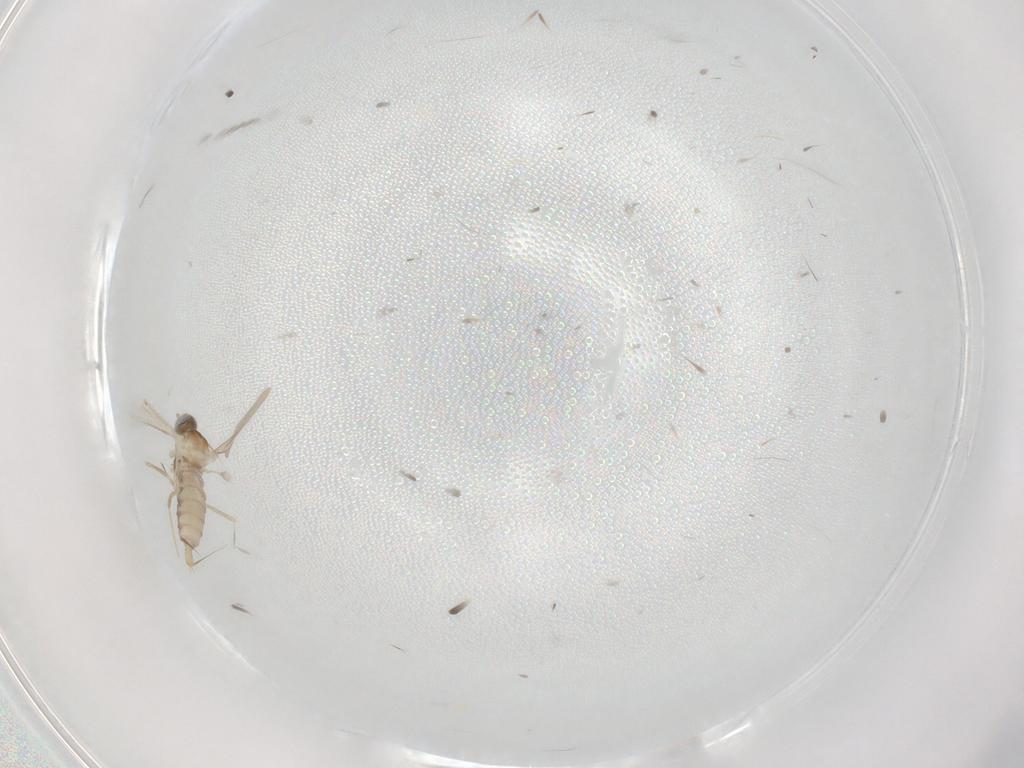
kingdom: Animalia
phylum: Arthropoda
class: Insecta
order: Diptera
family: Cecidomyiidae
